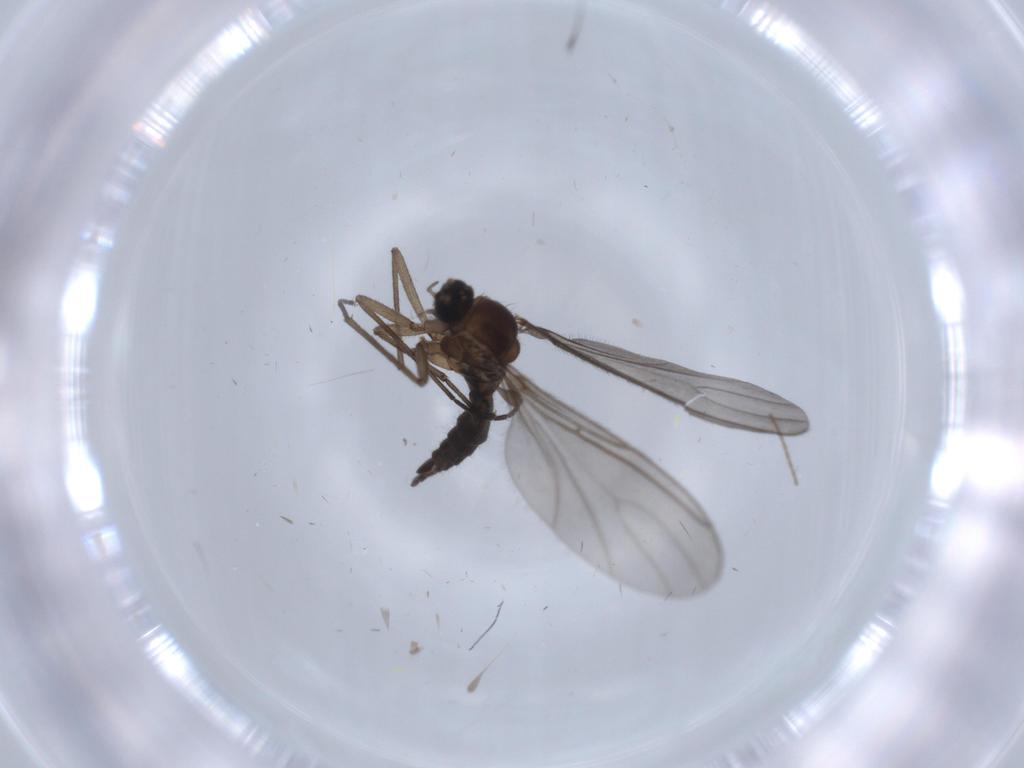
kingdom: Animalia
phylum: Arthropoda
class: Insecta
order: Diptera
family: Cecidomyiidae
